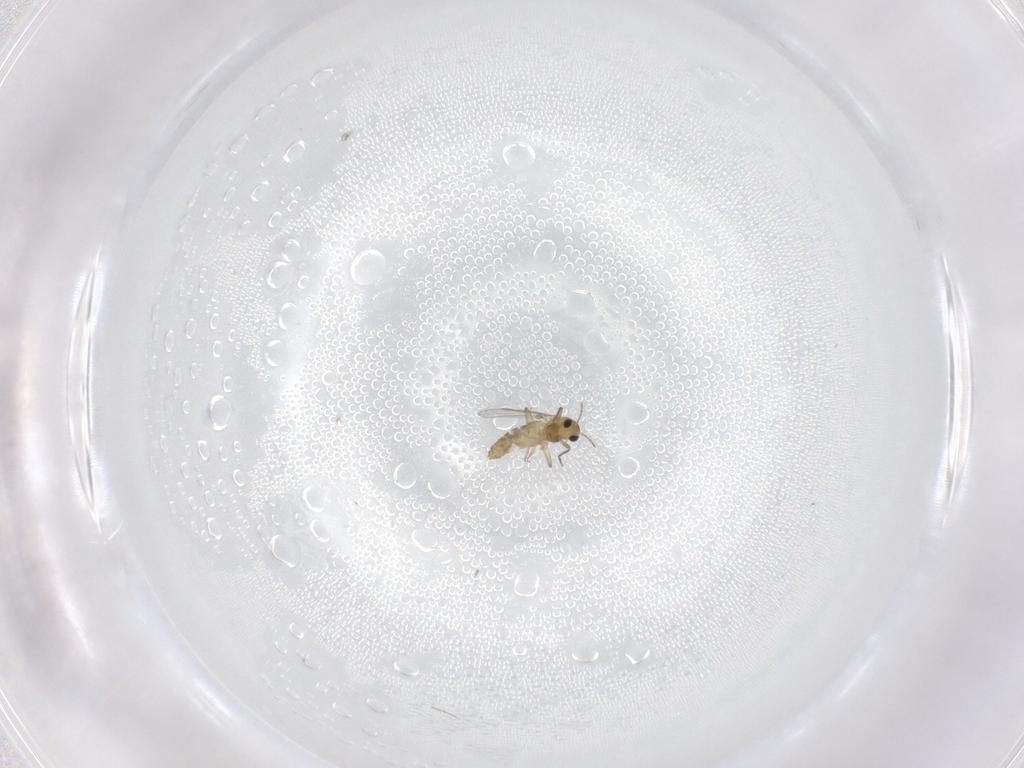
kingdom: Animalia
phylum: Arthropoda
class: Insecta
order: Diptera
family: Chironomidae
